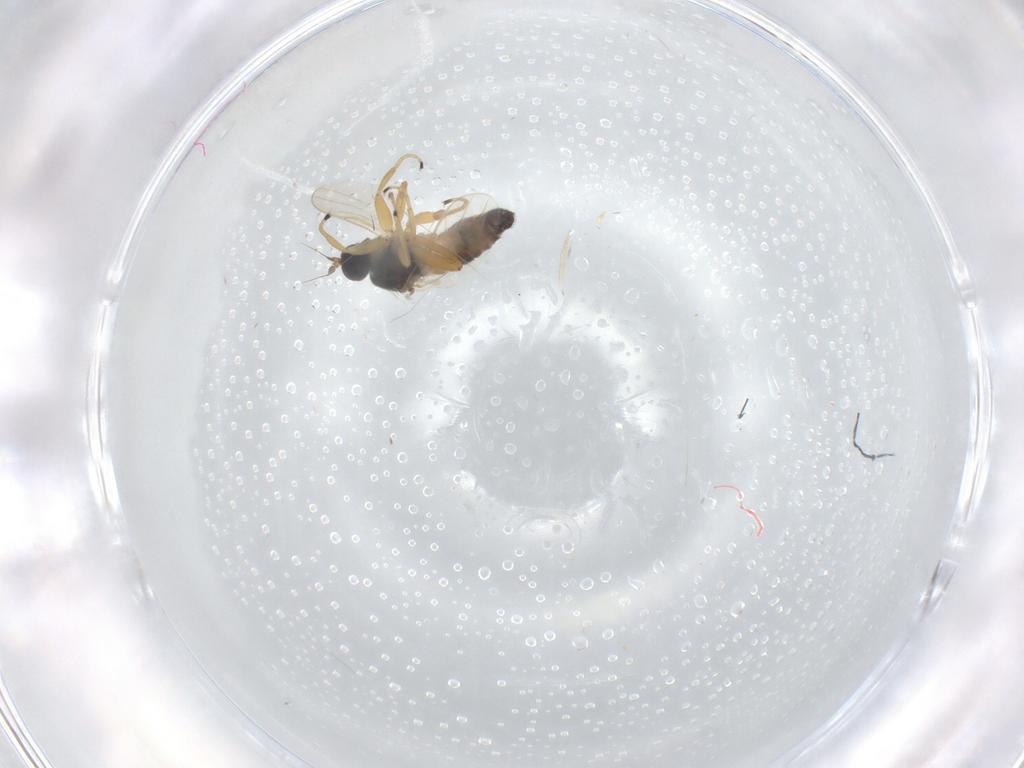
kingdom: Animalia
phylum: Arthropoda
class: Insecta
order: Diptera
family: Hybotidae
